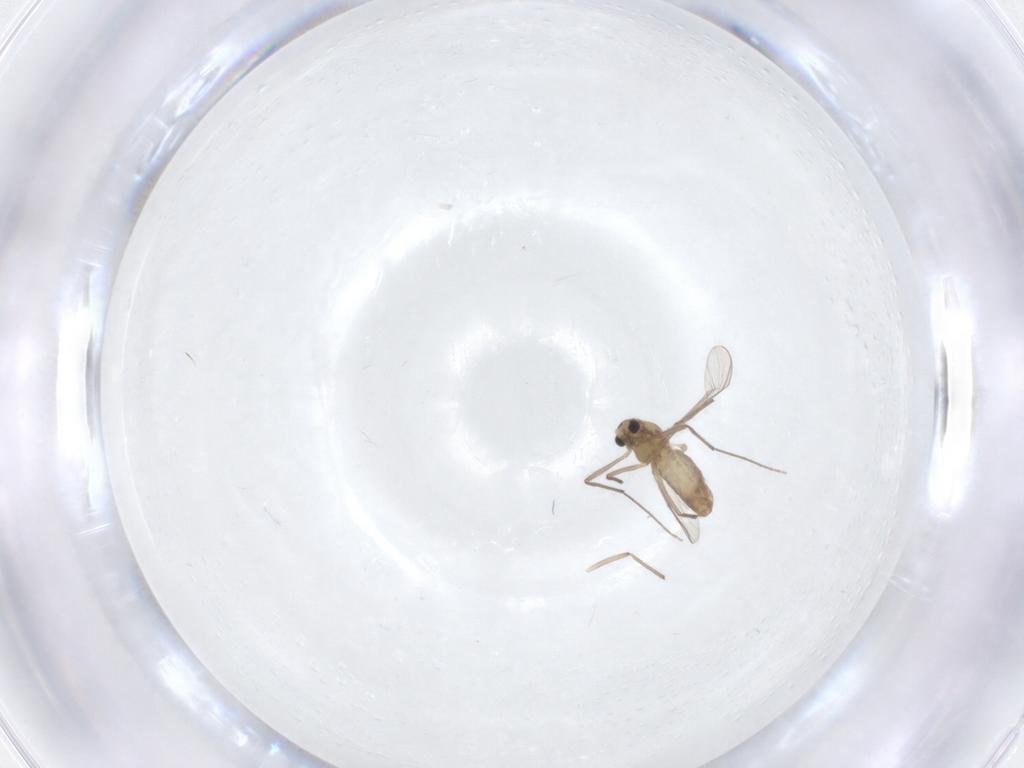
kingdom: Animalia
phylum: Arthropoda
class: Insecta
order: Diptera
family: Chironomidae
